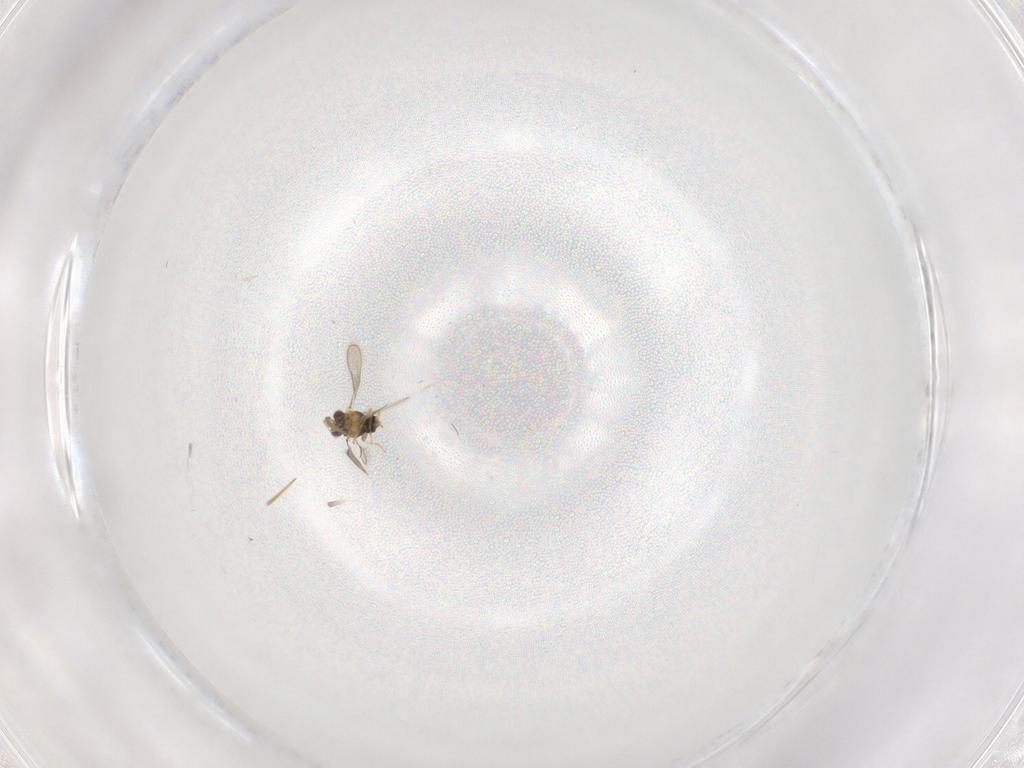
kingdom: Animalia
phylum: Arthropoda
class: Insecta
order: Hymenoptera
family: Aphelinidae
